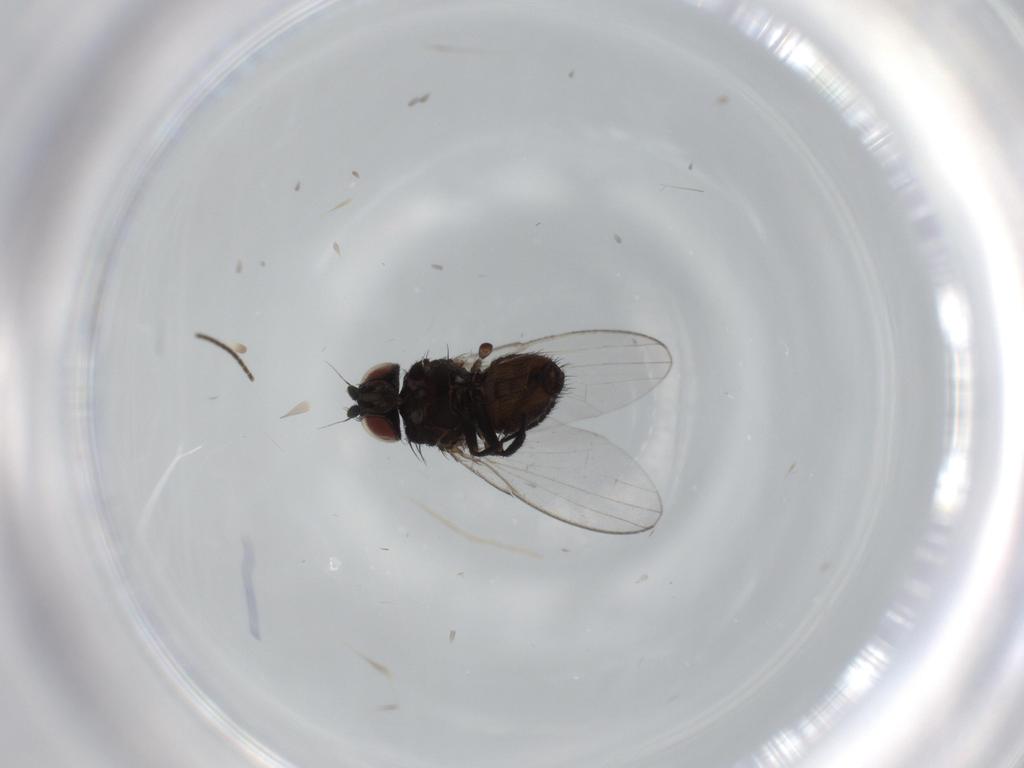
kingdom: Animalia
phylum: Arthropoda
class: Insecta
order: Diptera
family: Sciaridae
